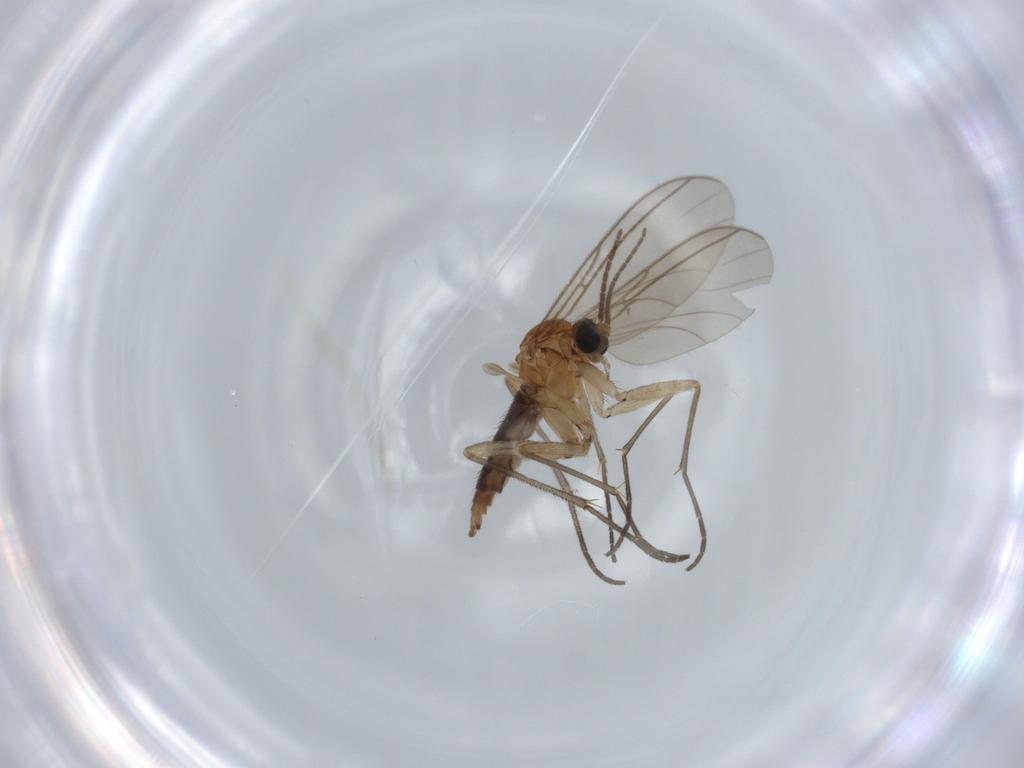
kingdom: Animalia
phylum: Arthropoda
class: Insecta
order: Diptera
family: Sciaridae
